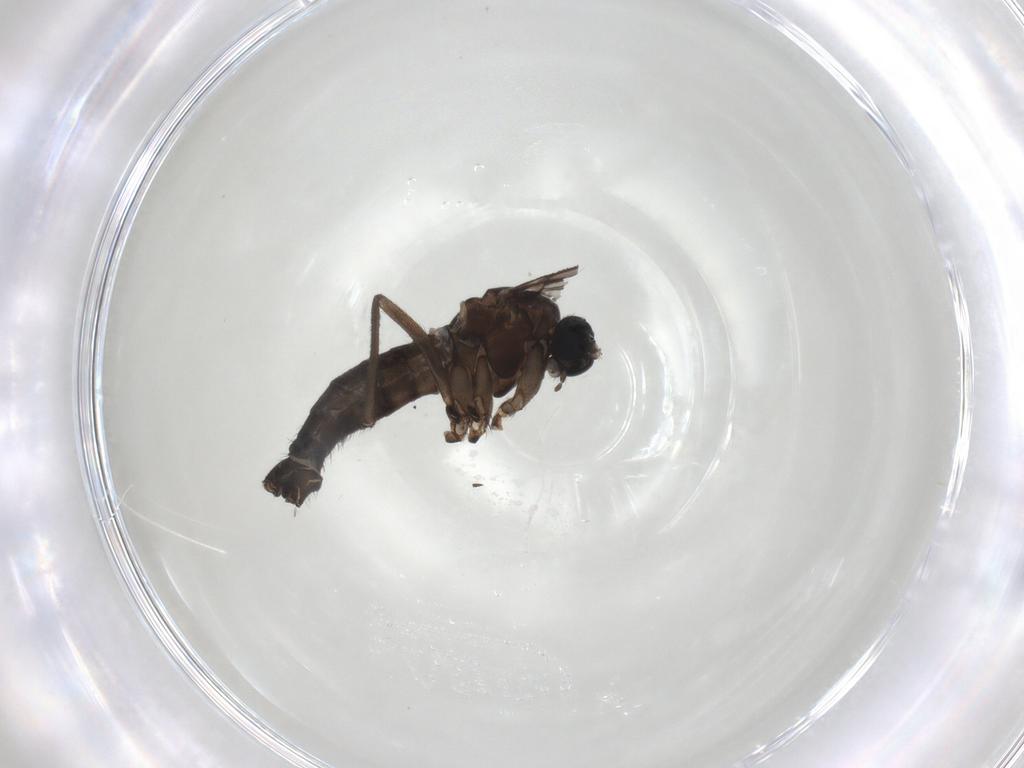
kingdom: Animalia
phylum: Arthropoda
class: Insecta
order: Diptera
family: Sciaridae
